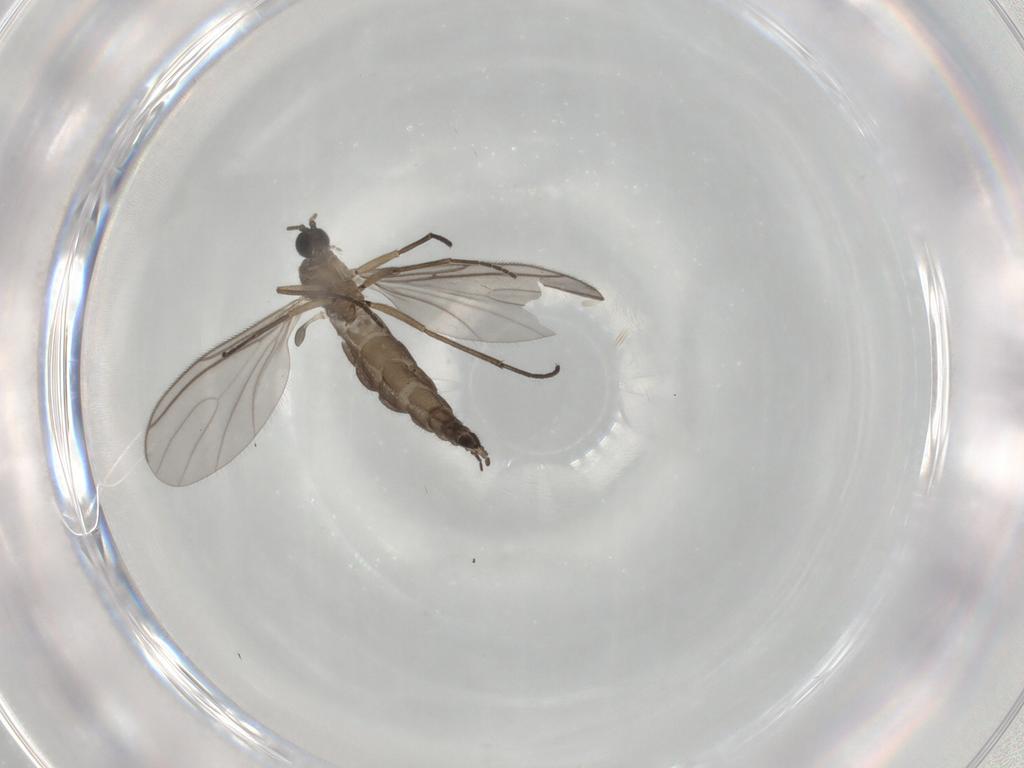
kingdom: Animalia
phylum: Arthropoda
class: Insecta
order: Diptera
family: Sciaridae
